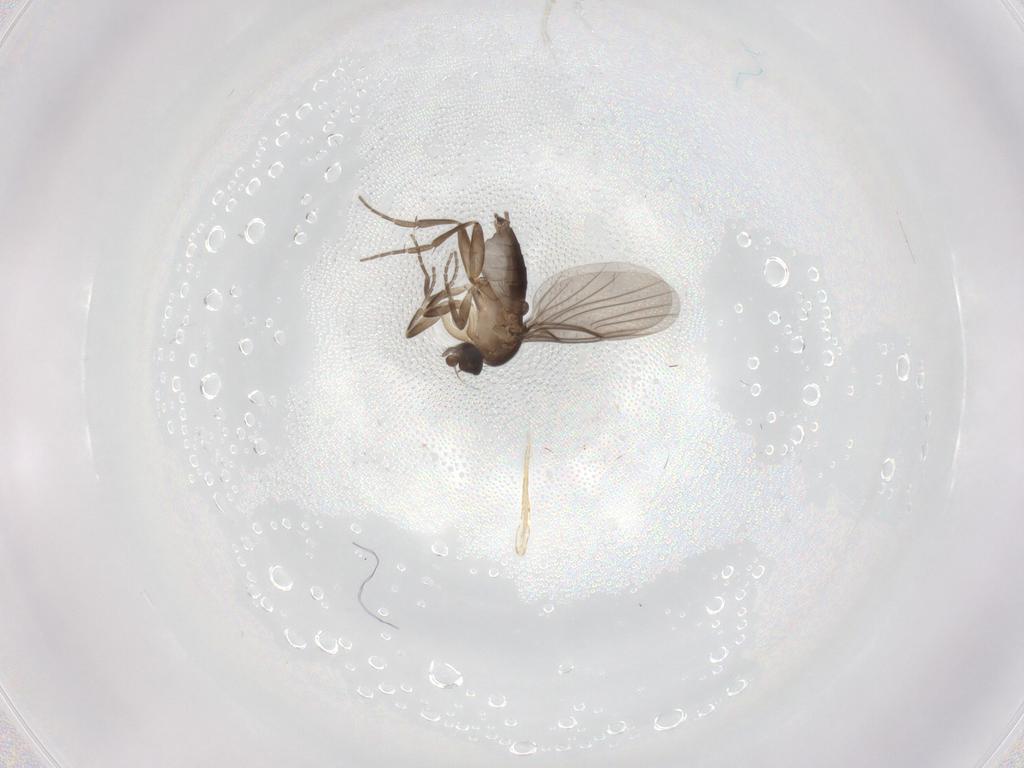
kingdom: Animalia
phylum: Arthropoda
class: Insecta
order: Diptera
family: Phoridae
